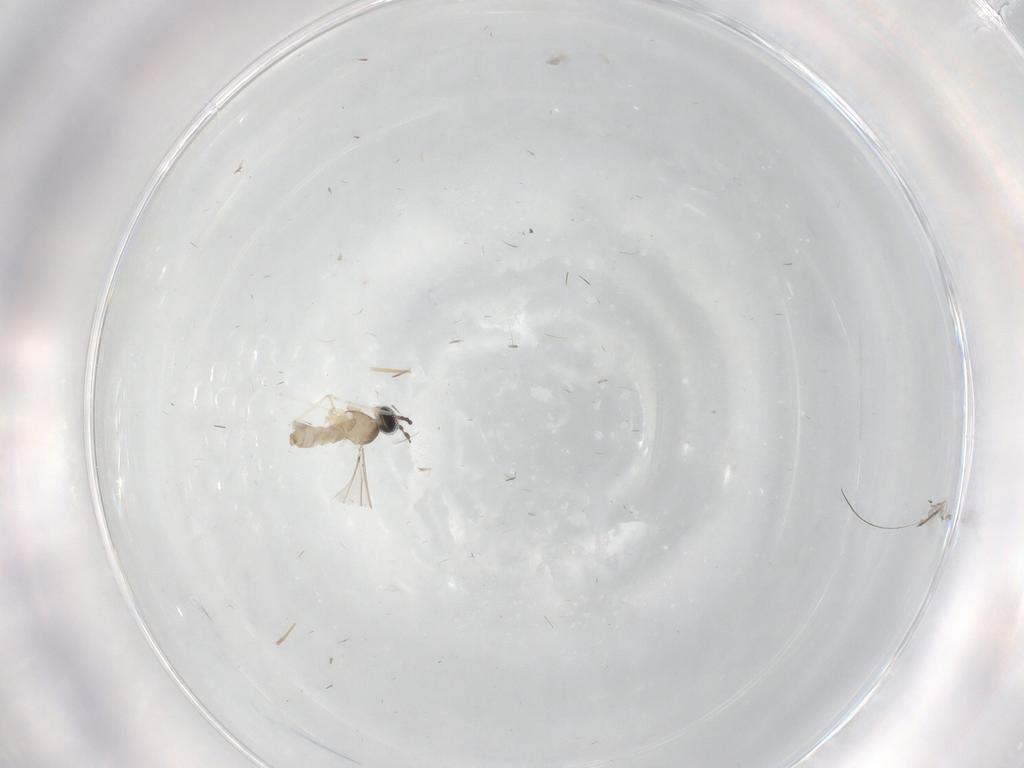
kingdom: Animalia
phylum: Arthropoda
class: Insecta
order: Diptera
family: Cecidomyiidae
